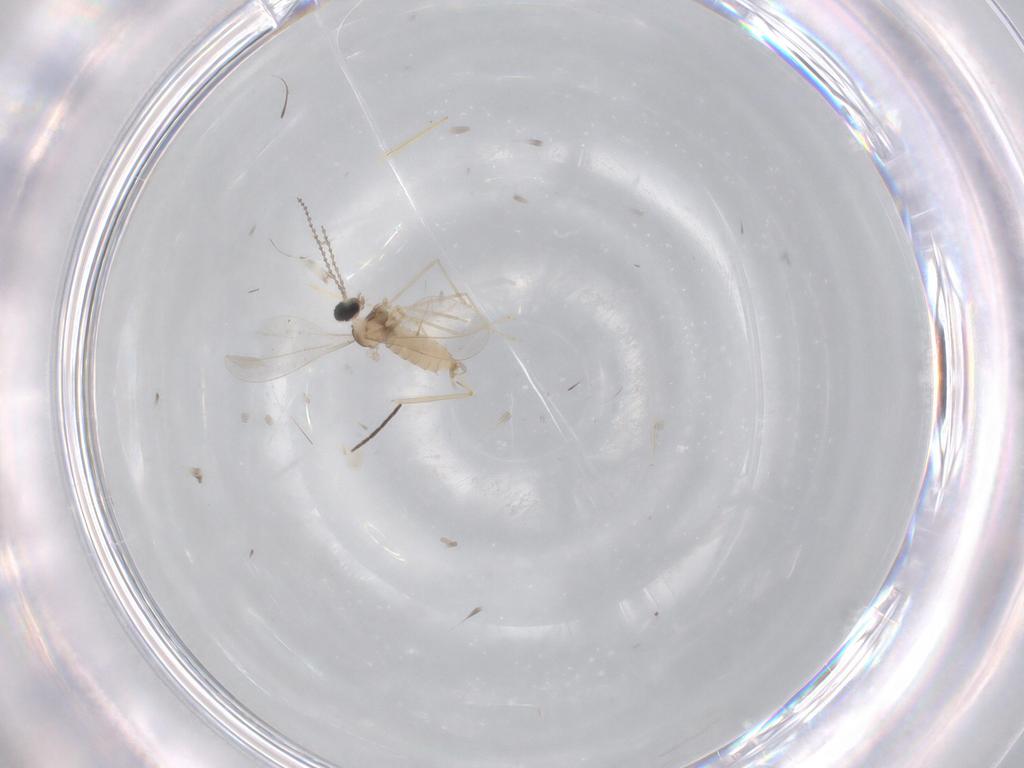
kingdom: Animalia
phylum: Arthropoda
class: Insecta
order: Diptera
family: Cecidomyiidae
